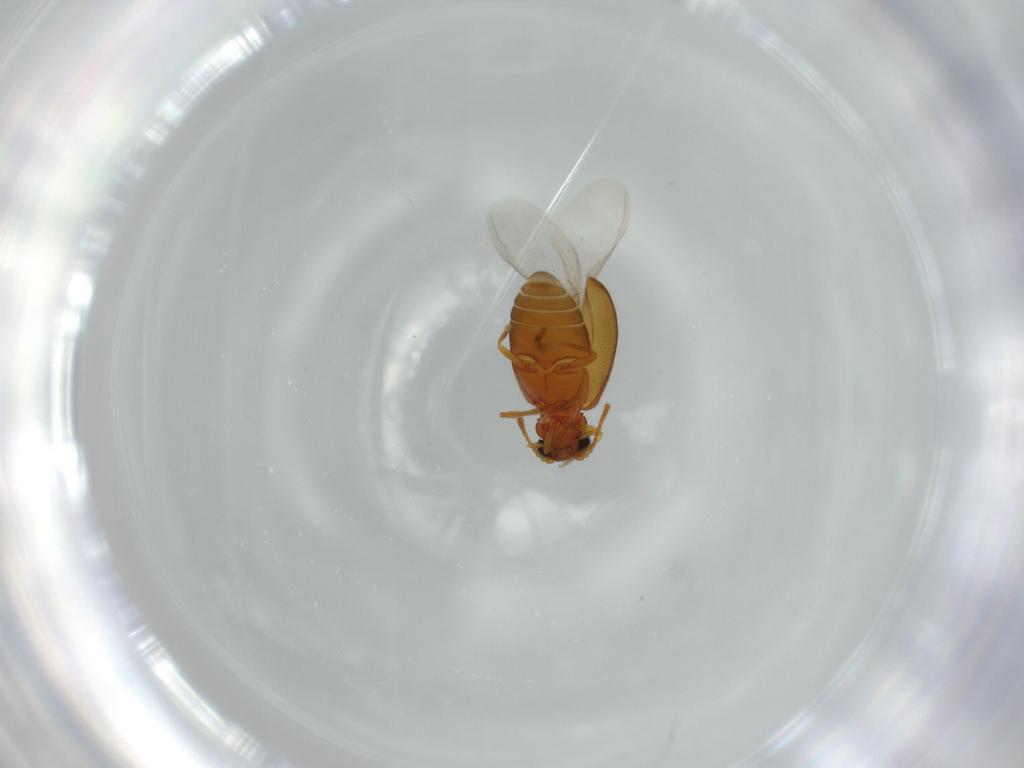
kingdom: Animalia
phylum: Arthropoda
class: Insecta
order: Coleoptera
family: Aderidae
